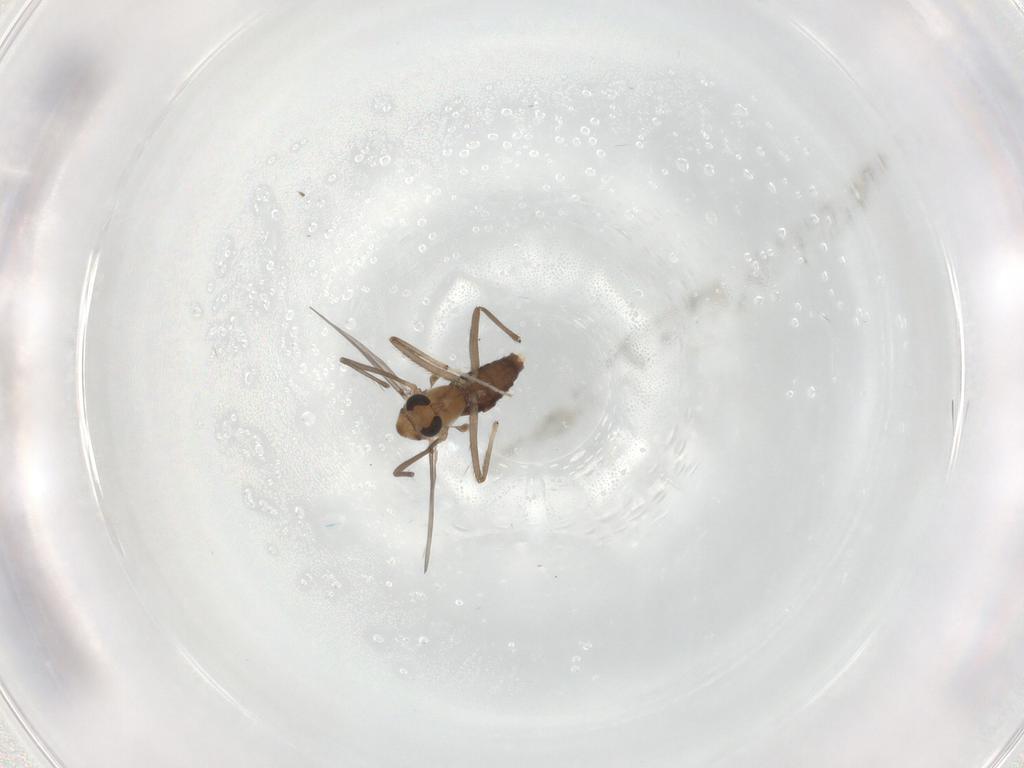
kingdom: Animalia
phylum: Arthropoda
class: Insecta
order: Diptera
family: Chironomidae
